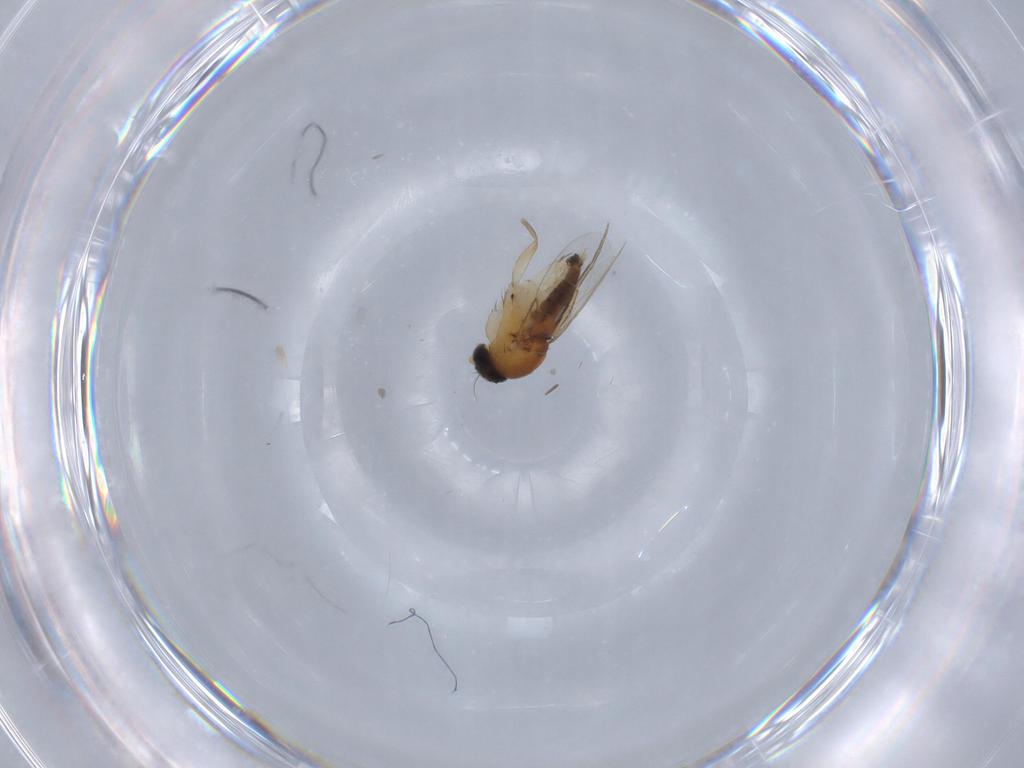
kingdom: Animalia
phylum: Arthropoda
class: Insecta
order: Diptera
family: Phoridae
